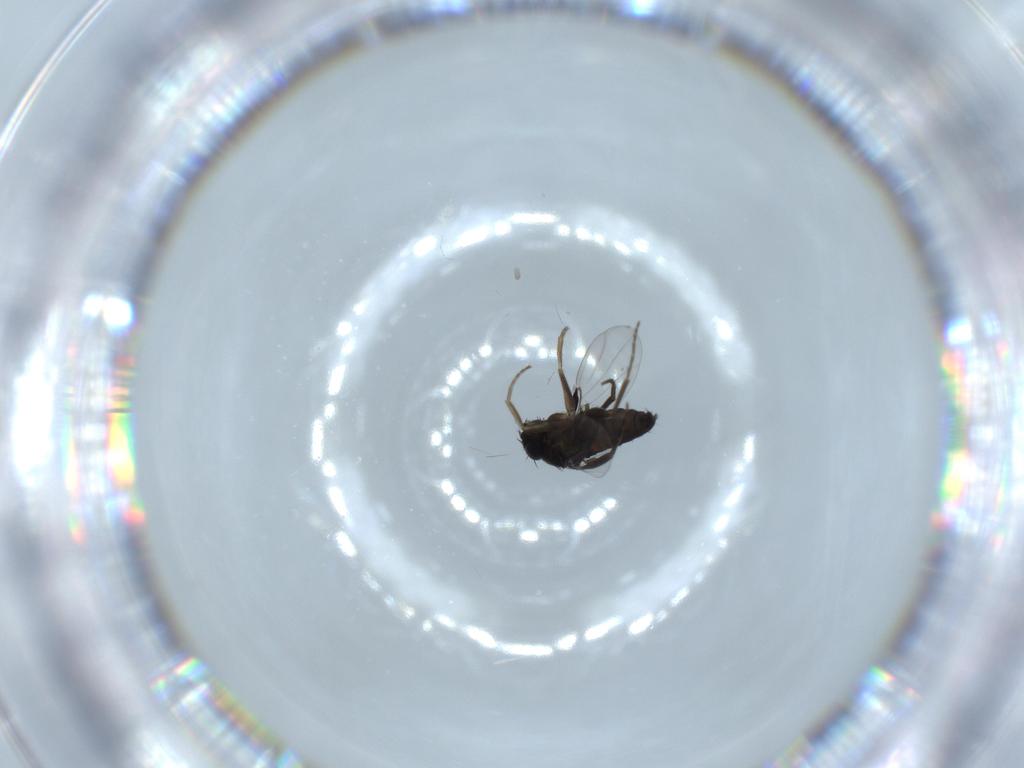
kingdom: Animalia
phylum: Arthropoda
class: Insecta
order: Diptera
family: Phoridae
